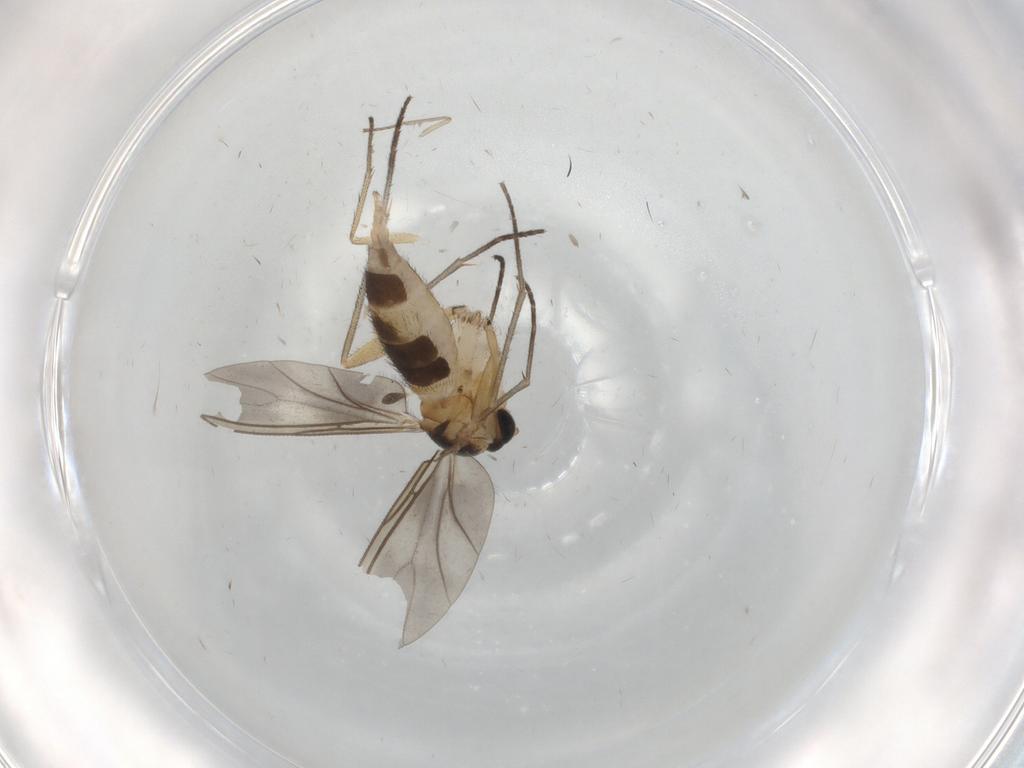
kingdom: Animalia
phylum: Arthropoda
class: Insecta
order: Diptera
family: Sciaridae
